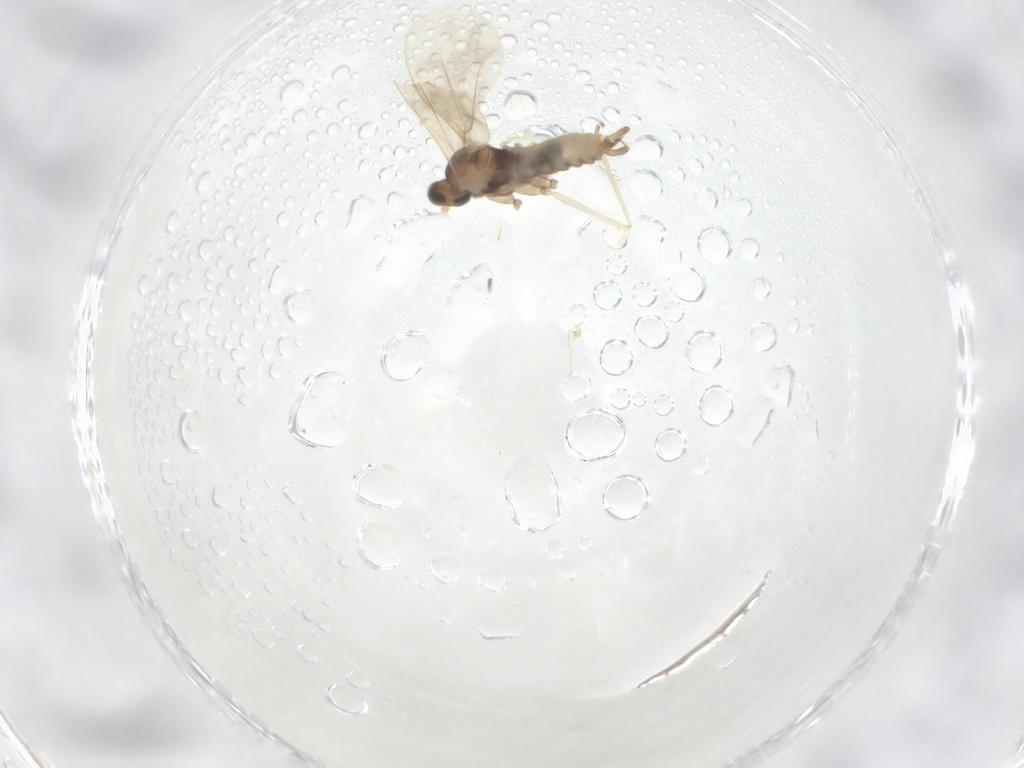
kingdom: Animalia
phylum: Arthropoda
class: Insecta
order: Diptera
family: Cecidomyiidae
